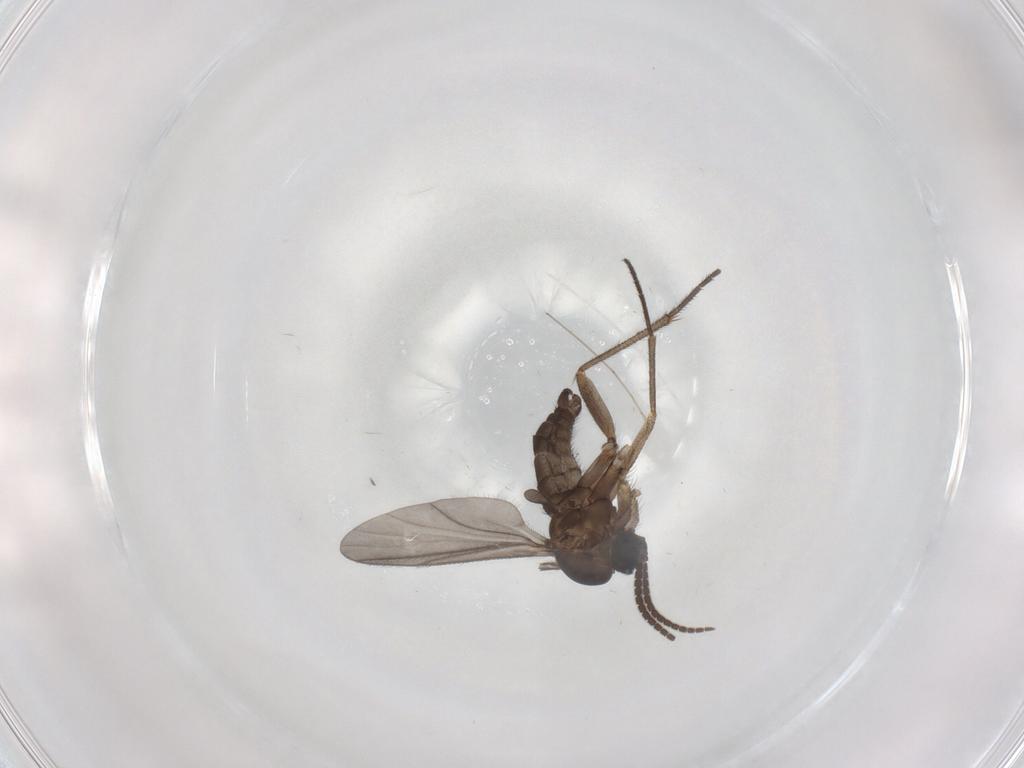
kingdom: Animalia
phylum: Arthropoda
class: Insecta
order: Diptera
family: Sciaridae
